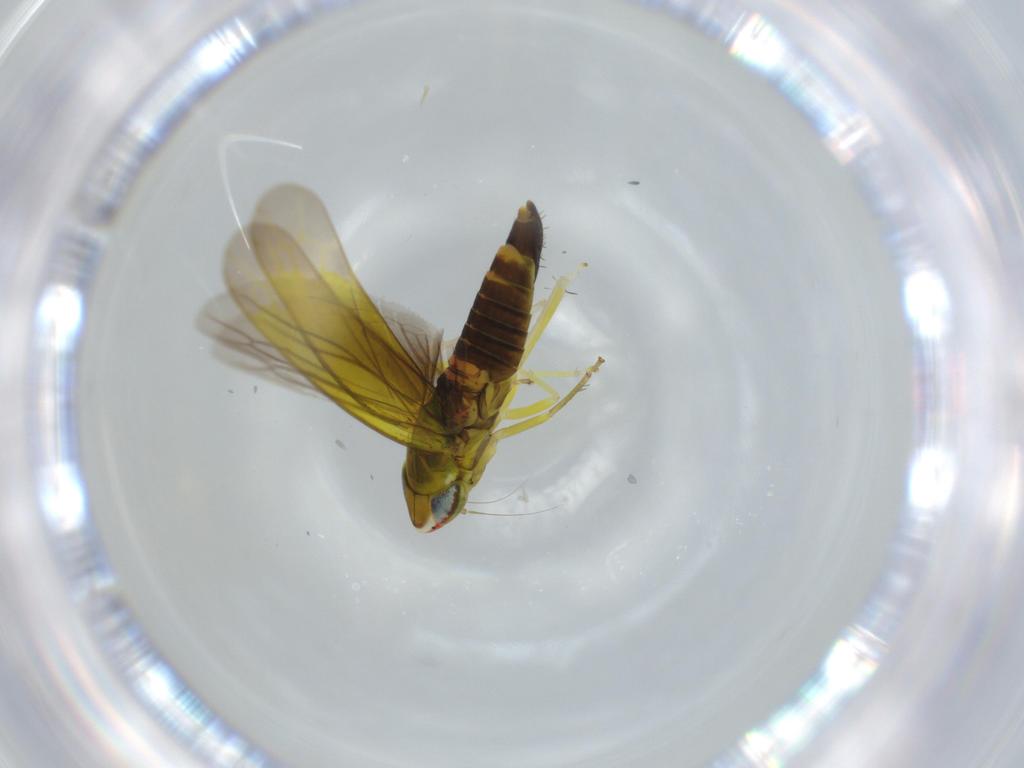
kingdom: Animalia
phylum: Arthropoda
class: Insecta
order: Hemiptera
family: Cicadellidae
